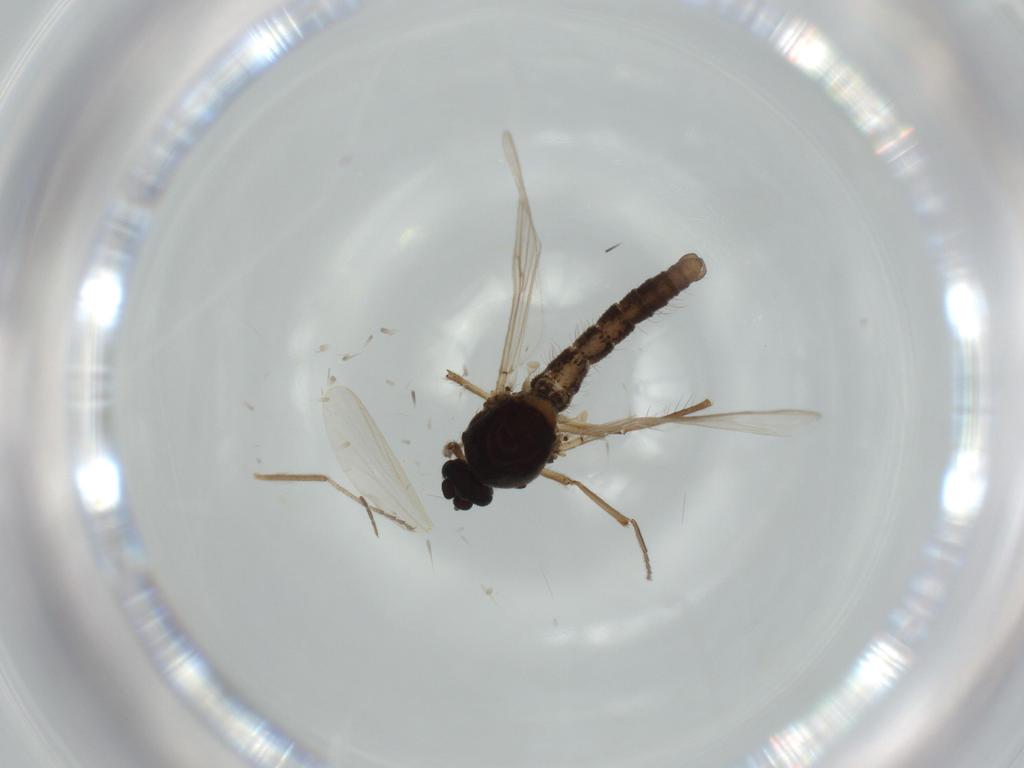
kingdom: Animalia
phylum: Arthropoda
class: Insecta
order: Diptera
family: Ceratopogonidae
